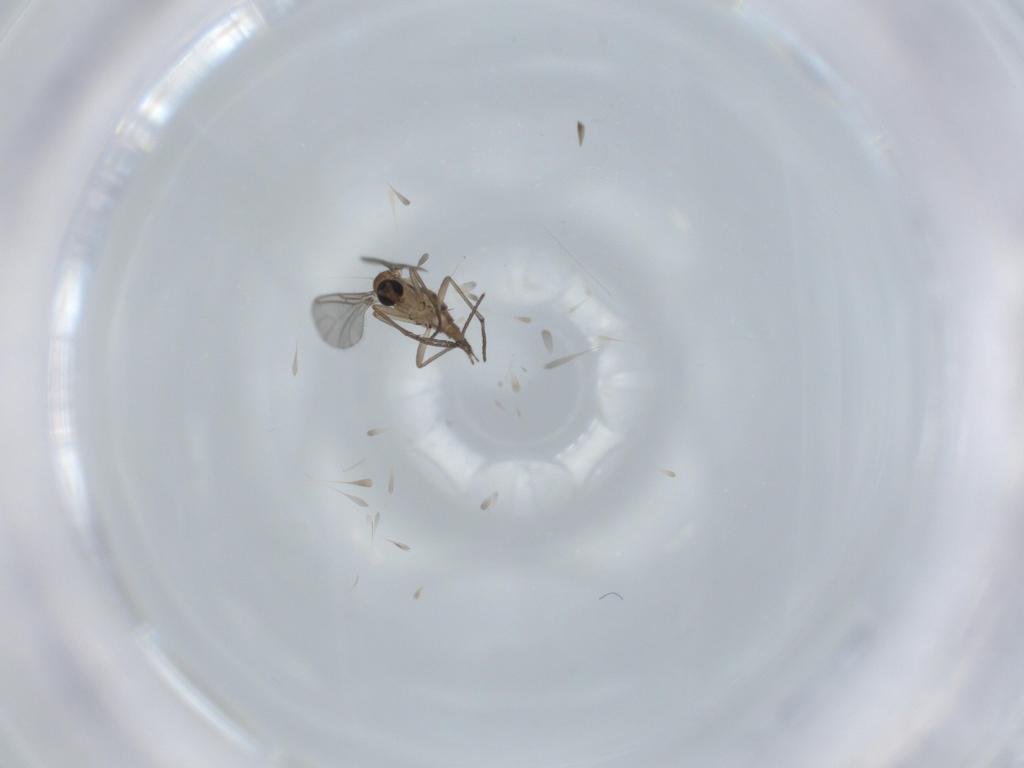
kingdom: Animalia
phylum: Arthropoda
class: Insecta
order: Diptera
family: Sciaridae
